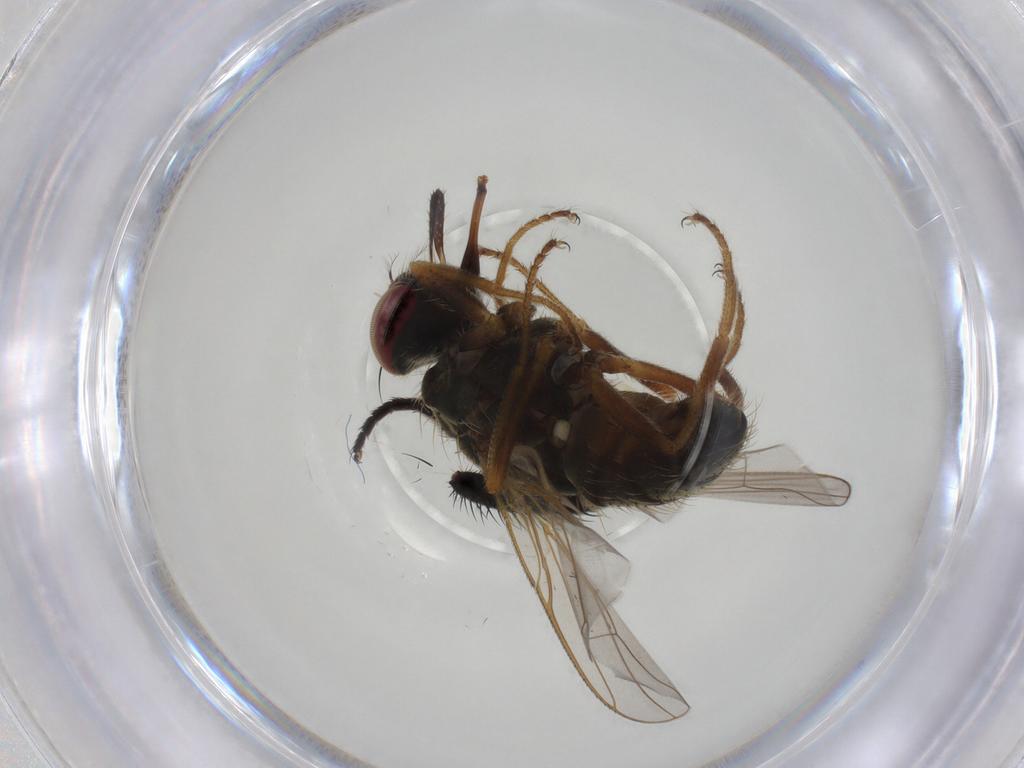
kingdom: Animalia
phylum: Arthropoda
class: Insecta
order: Diptera
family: Muscidae
